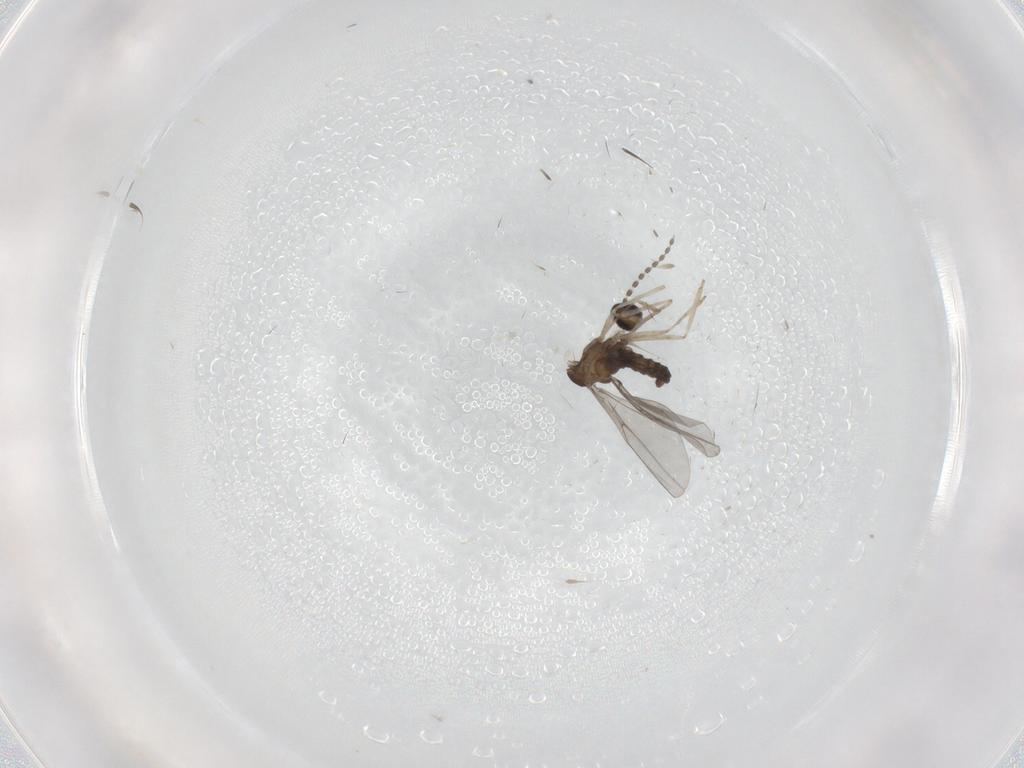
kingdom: Animalia
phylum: Arthropoda
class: Insecta
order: Diptera
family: Cecidomyiidae
